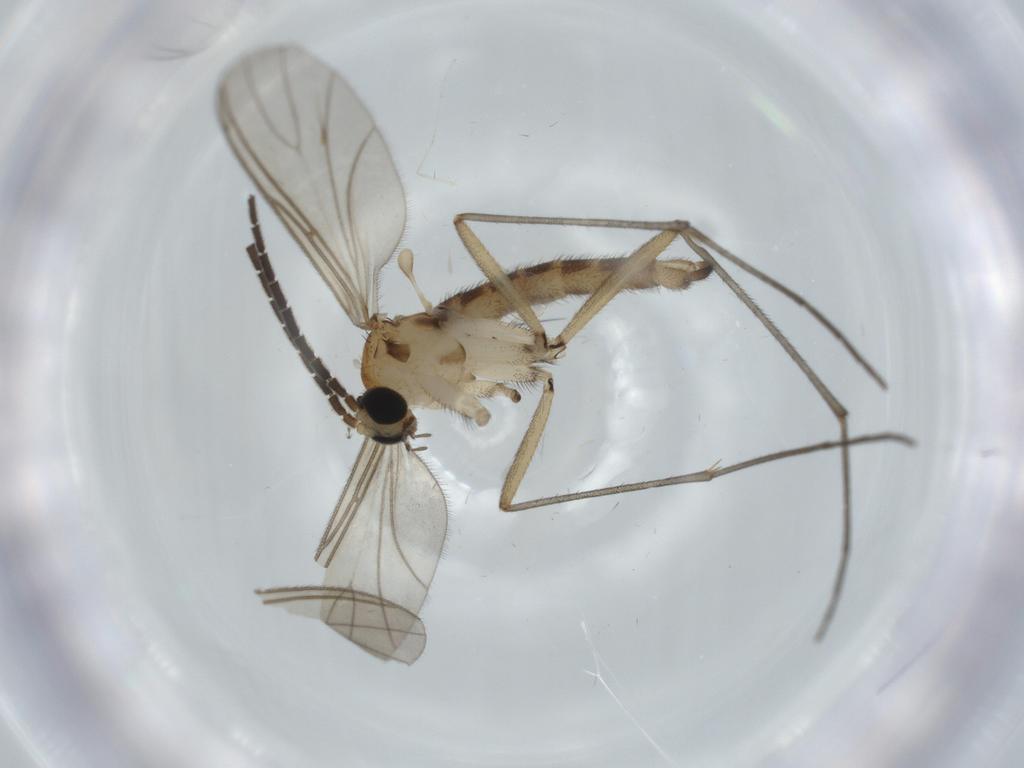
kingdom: Animalia
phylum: Arthropoda
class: Insecta
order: Diptera
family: Sciaridae
